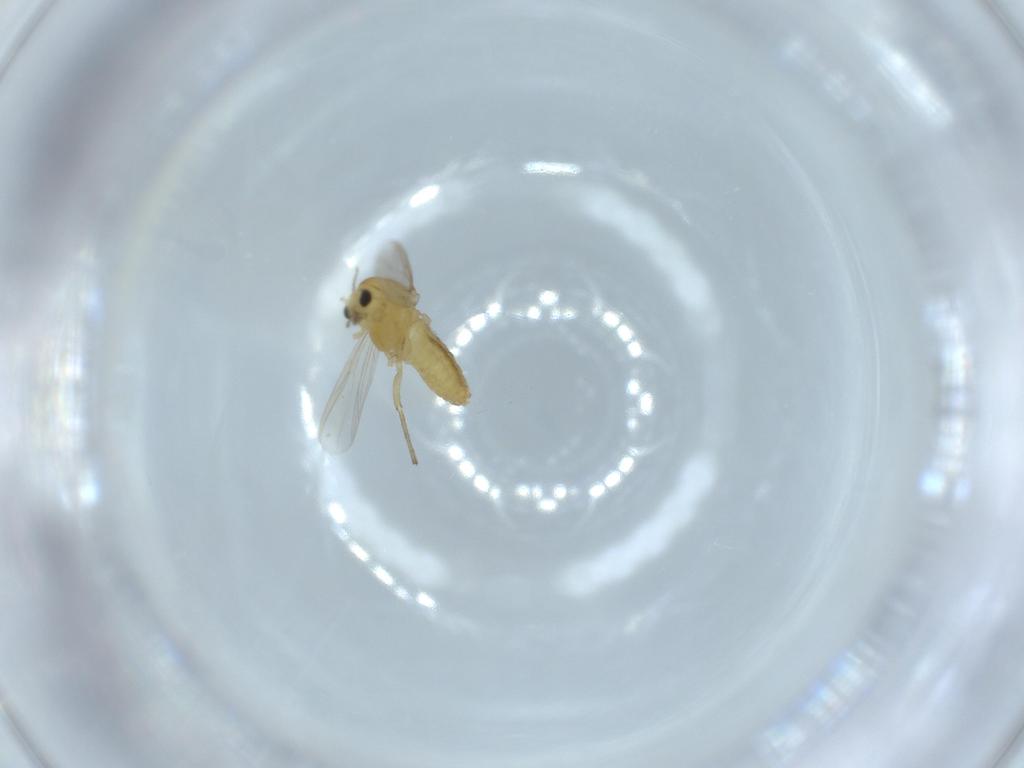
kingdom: Animalia
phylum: Arthropoda
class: Insecta
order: Diptera
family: Chironomidae
